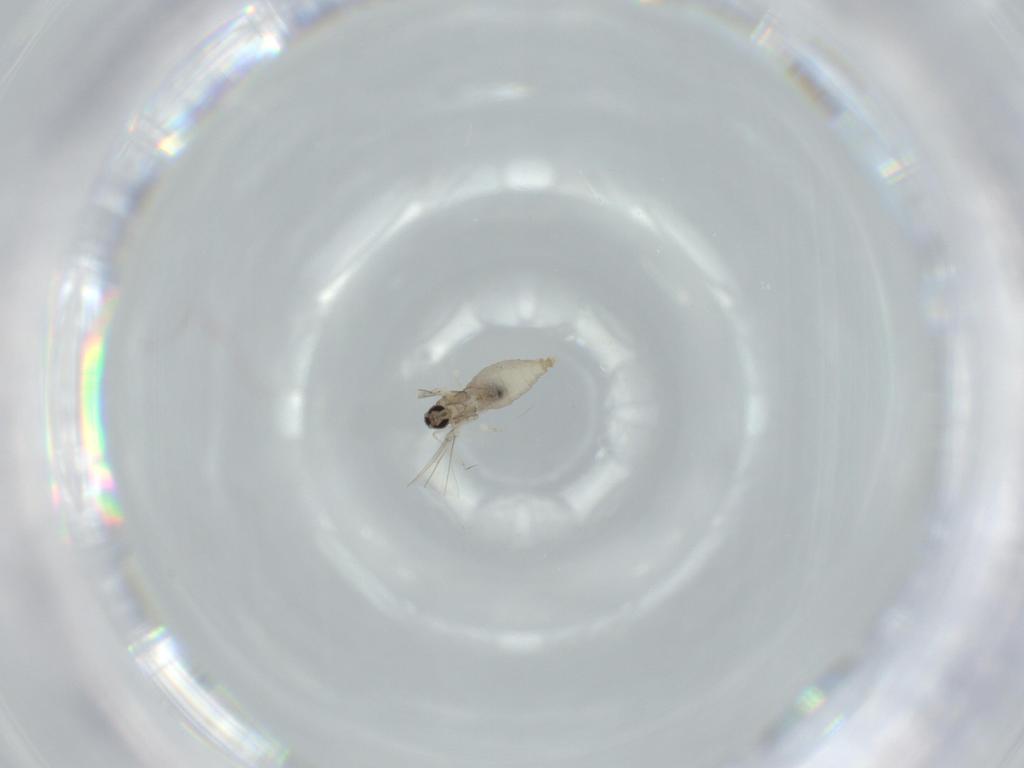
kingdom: Animalia
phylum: Arthropoda
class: Insecta
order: Diptera
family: Cecidomyiidae
